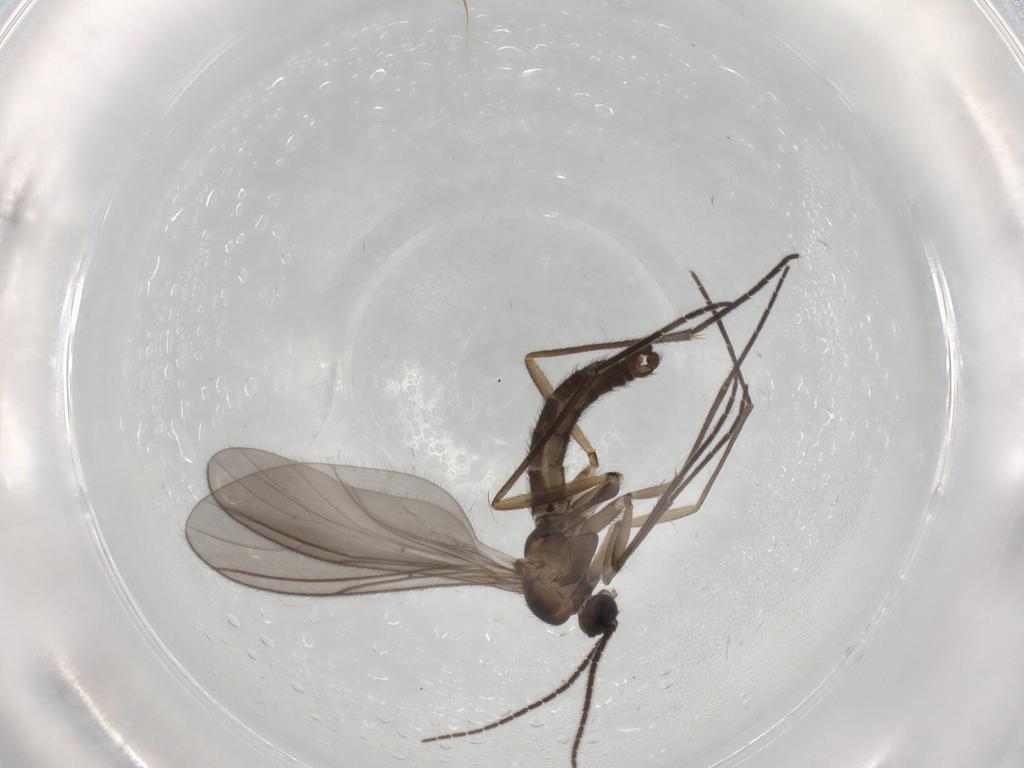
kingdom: Animalia
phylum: Arthropoda
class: Insecta
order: Diptera
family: Sciaridae
